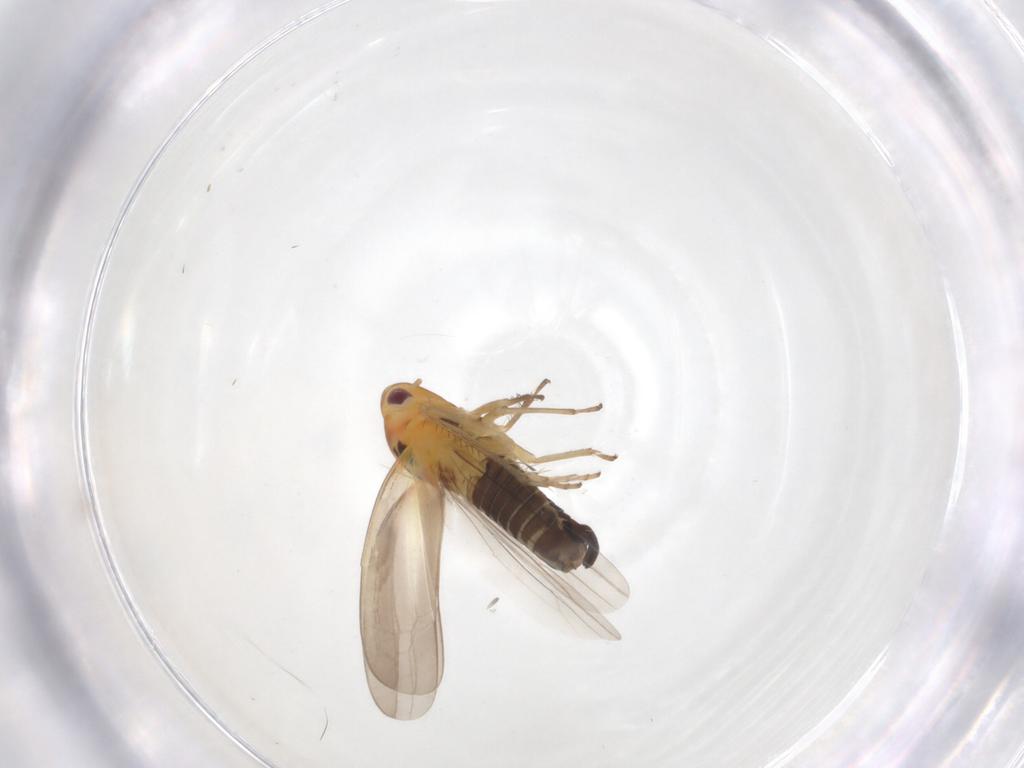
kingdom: Animalia
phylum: Arthropoda
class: Insecta
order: Hemiptera
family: Cicadellidae
